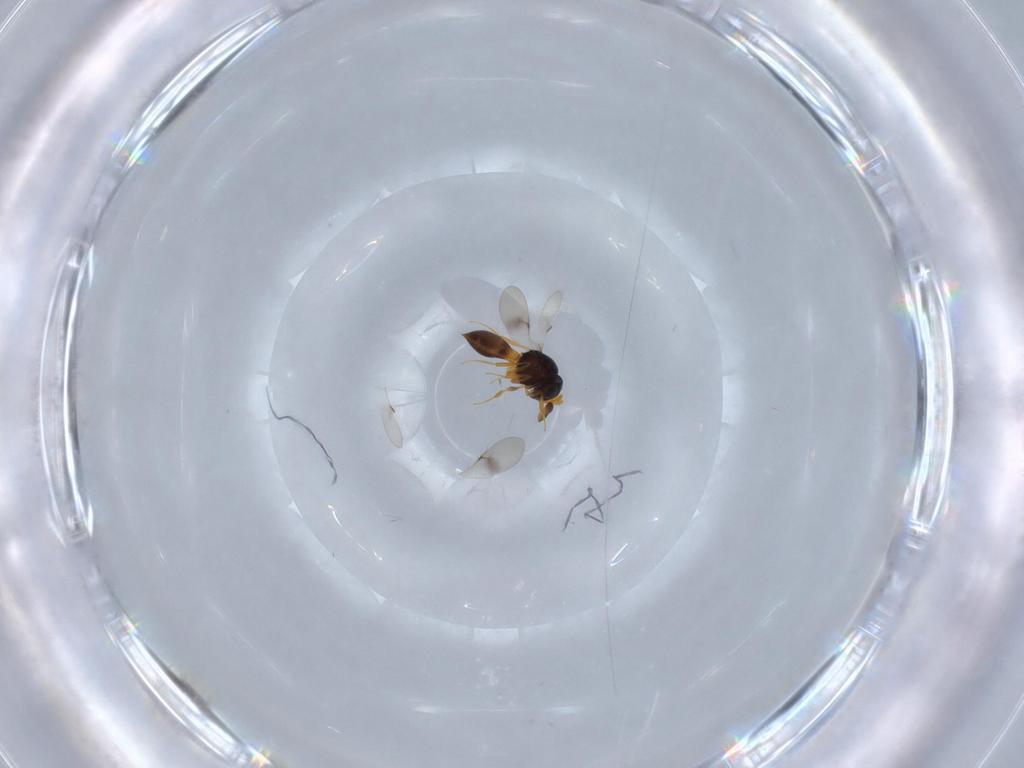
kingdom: Animalia
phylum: Arthropoda
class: Insecta
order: Hymenoptera
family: Scelionidae
